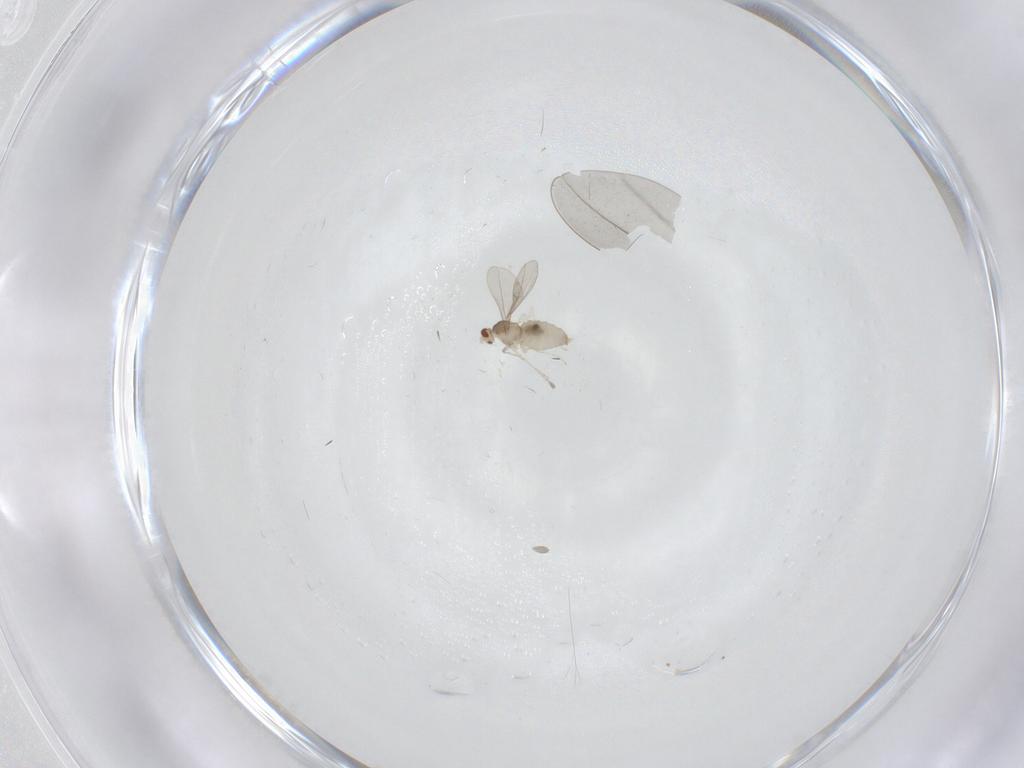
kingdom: Animalia
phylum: Arthropoda
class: Insecta
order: Diptera
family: Cecidomyiidae
